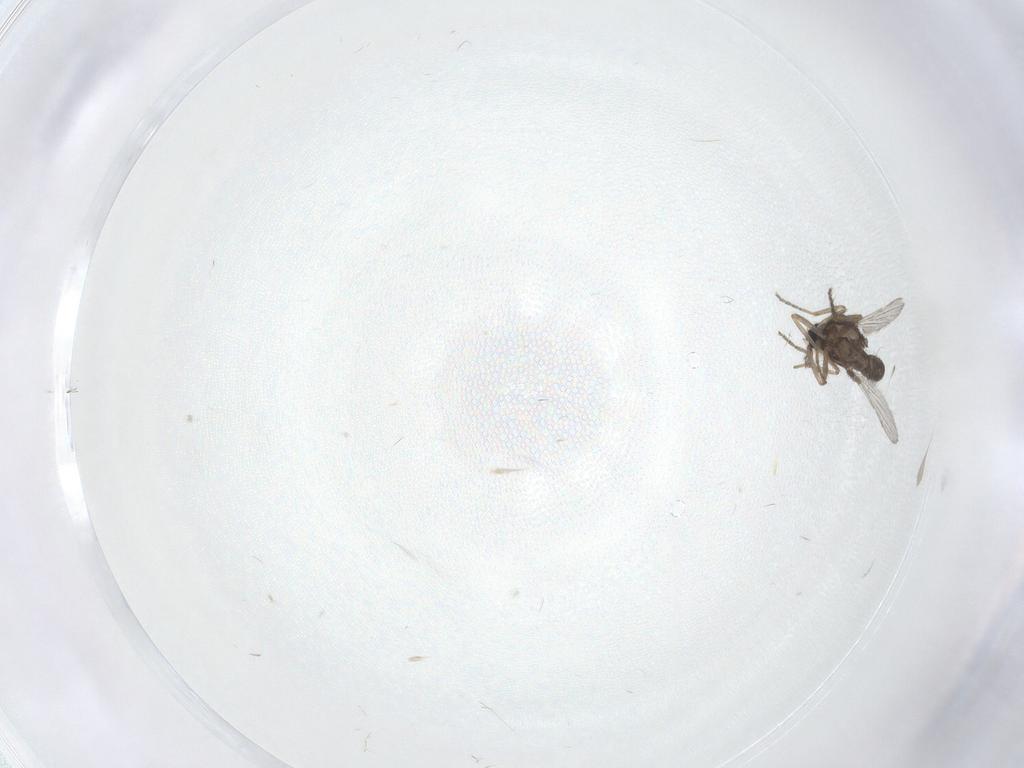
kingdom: Animalia
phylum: Arthropoda
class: Insecta
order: Diptera
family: Ceratopogonidae
